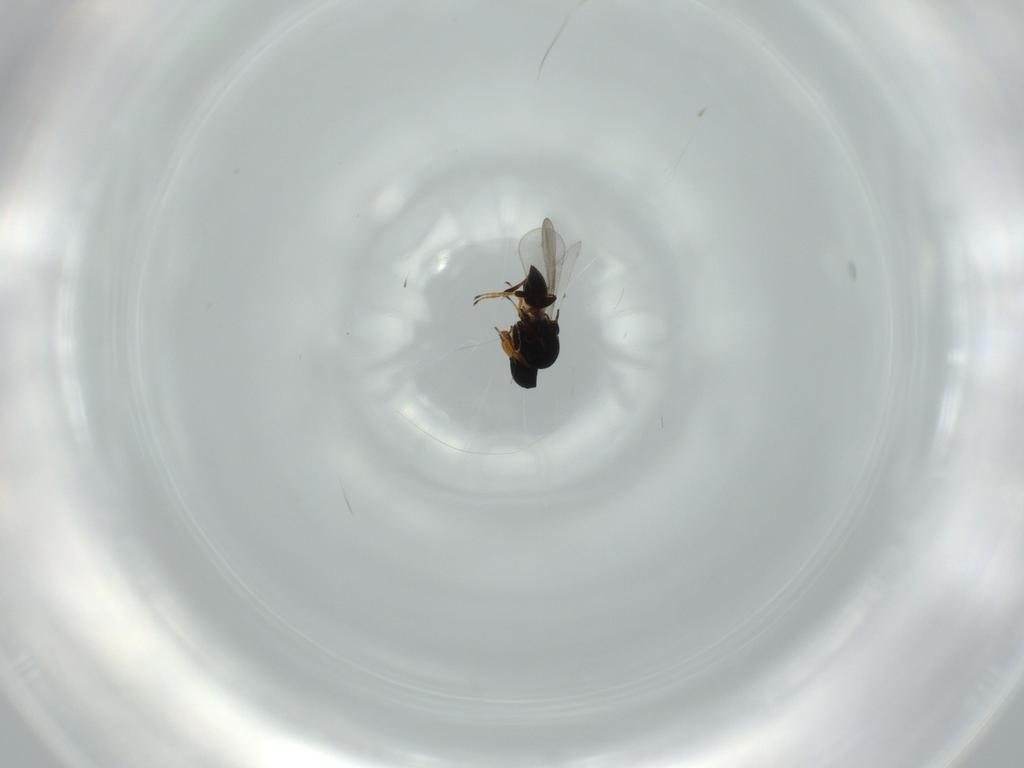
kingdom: Animalia
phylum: Arthropoda
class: Insecta
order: Hymenoptera
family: Platygastridae
